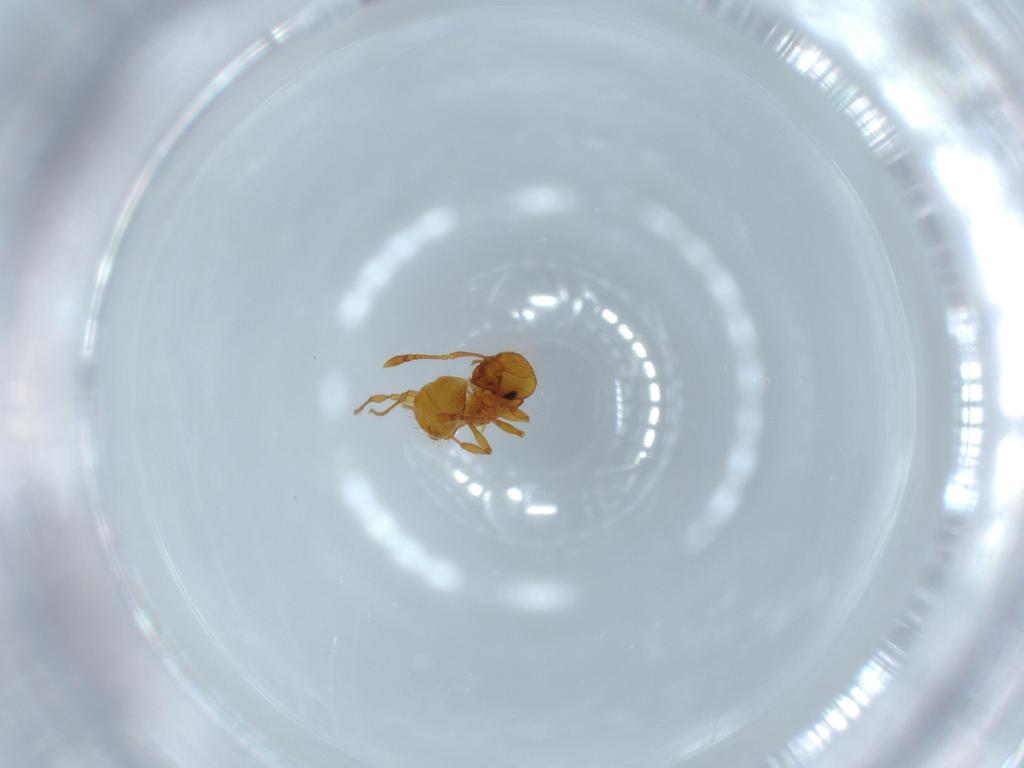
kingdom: Animalia
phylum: Arthropoda
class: Insecta
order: Hymenoptera
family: Formicidae
